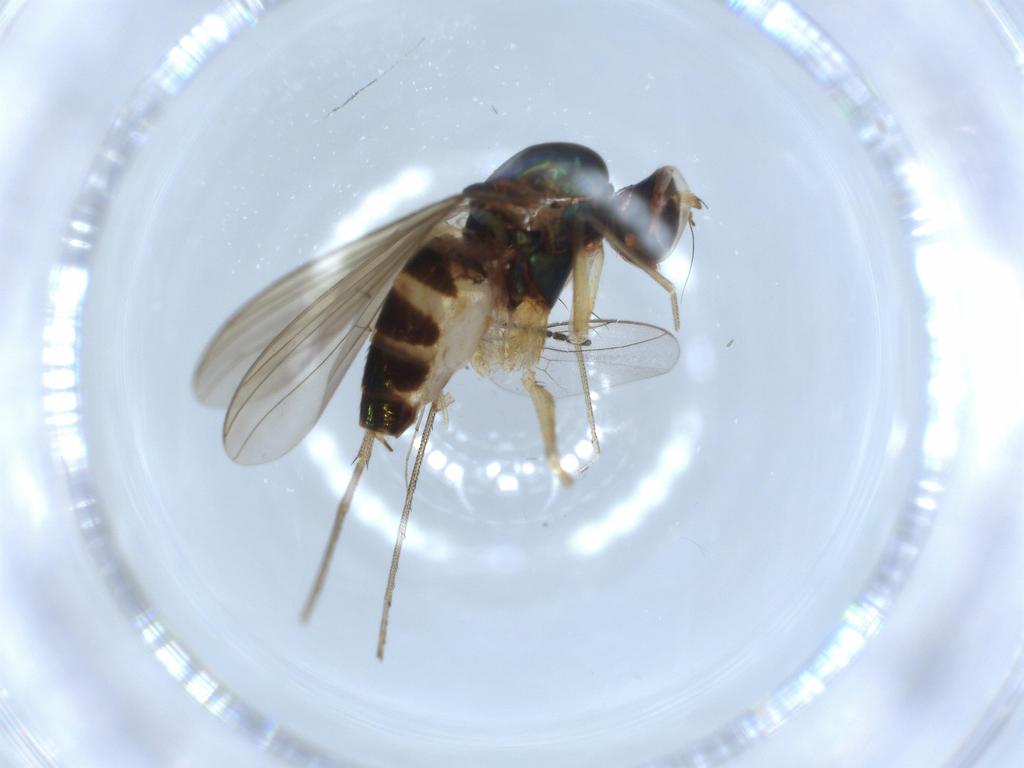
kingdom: Animalia
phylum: Arthropoda
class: Insecta
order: Diptera
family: Dolichopodidae
